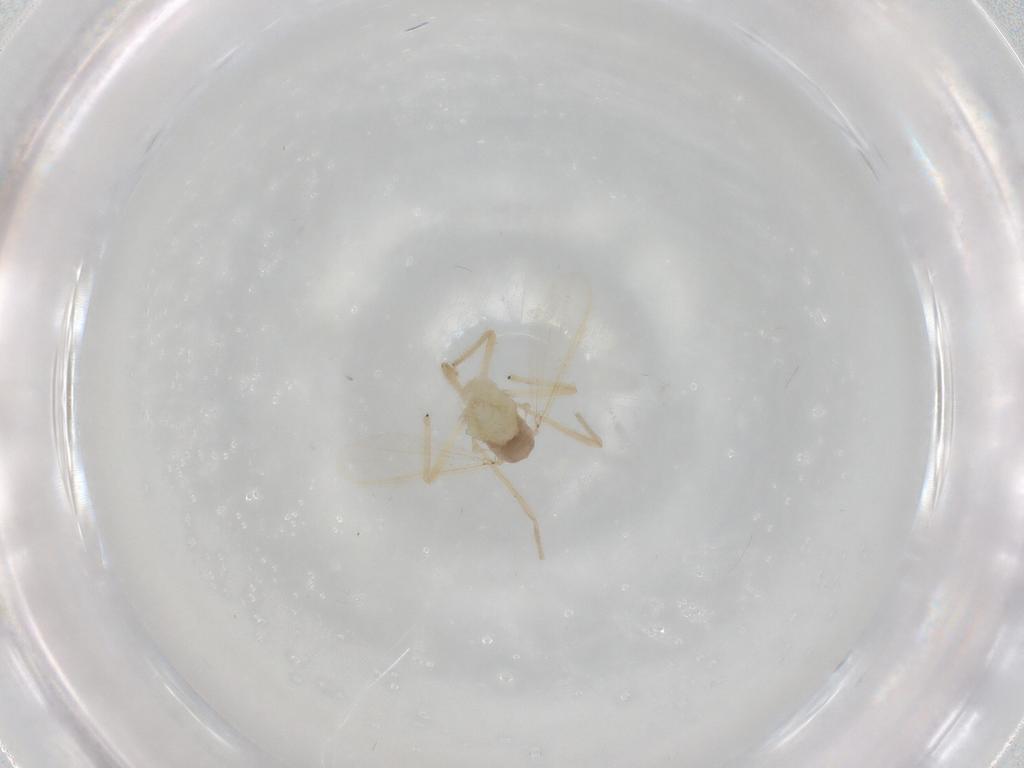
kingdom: Animalia
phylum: Arthropoda
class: Insecta
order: Diptera
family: Chironomidae
